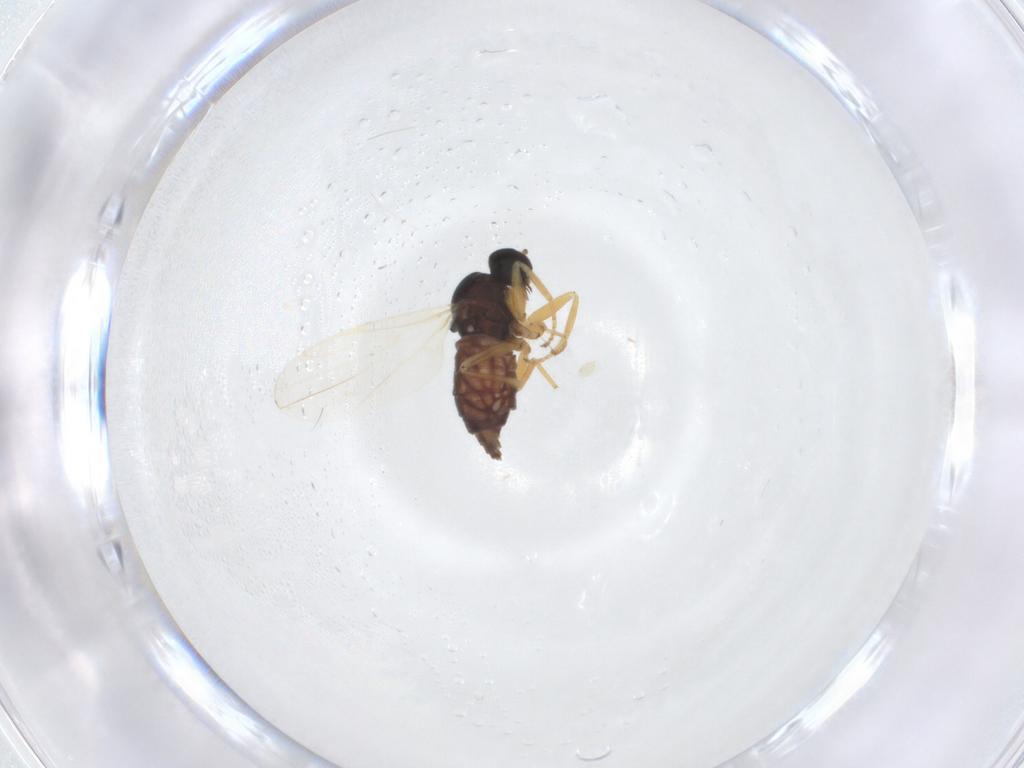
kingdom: Animalia
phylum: Arthropoda
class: Insecta
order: Diptera
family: Hybotidae
